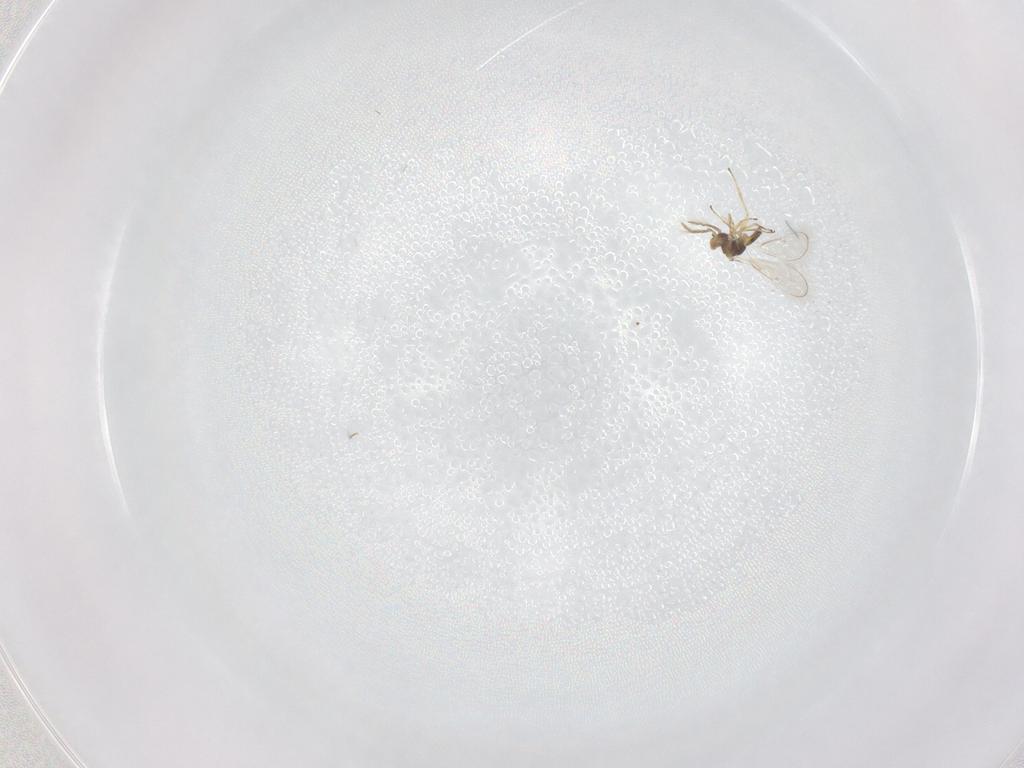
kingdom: Animalia
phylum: Arthropoda
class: Insecta
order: Hymenoptera
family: Eulophidae
